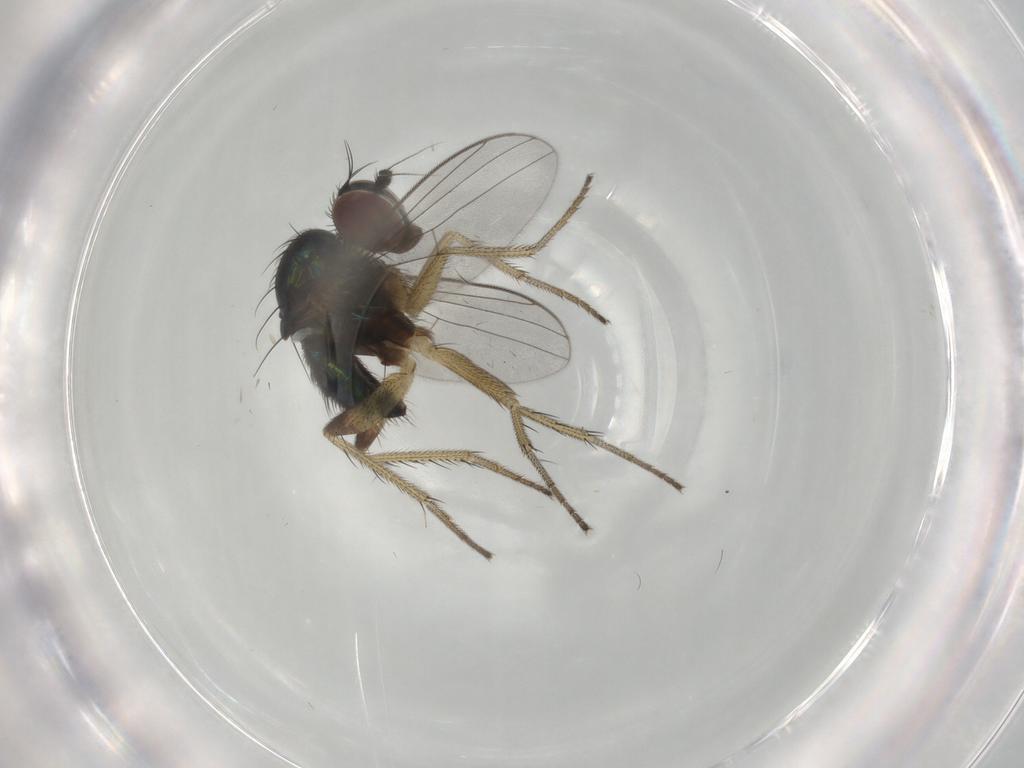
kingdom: Animalia
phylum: Arthropoda
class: Insecta
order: Diptera
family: Dolichopodidae
